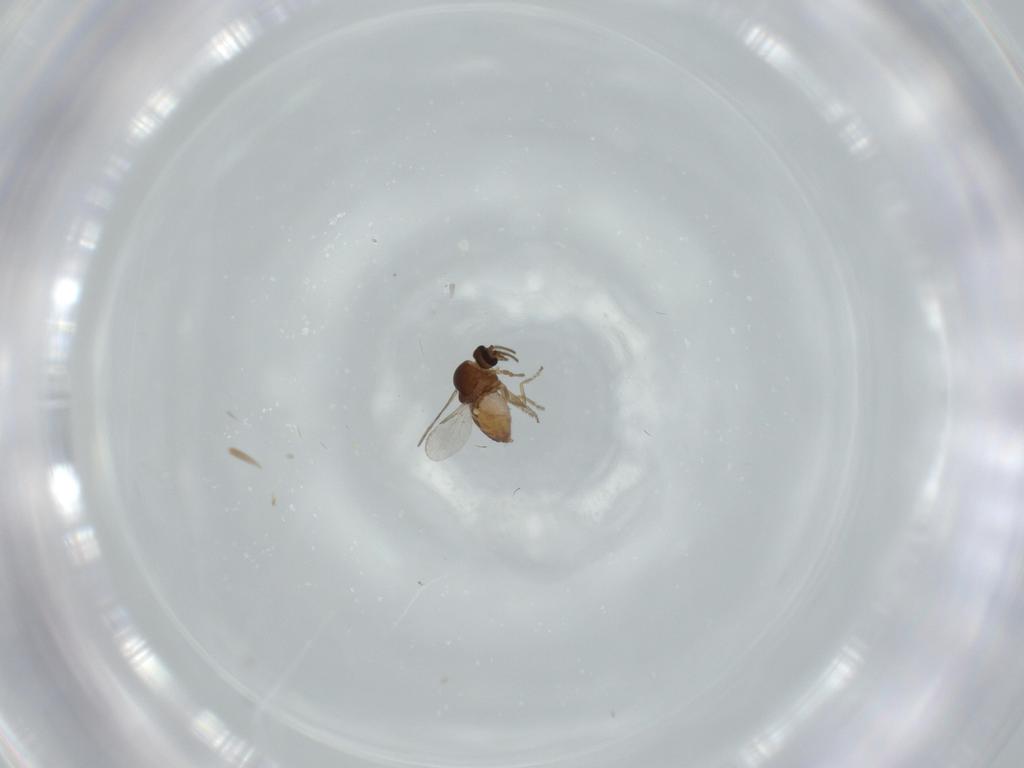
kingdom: Animalia
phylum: Arthropoda
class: Insecta
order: Diptera
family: Ceratopogonidae
